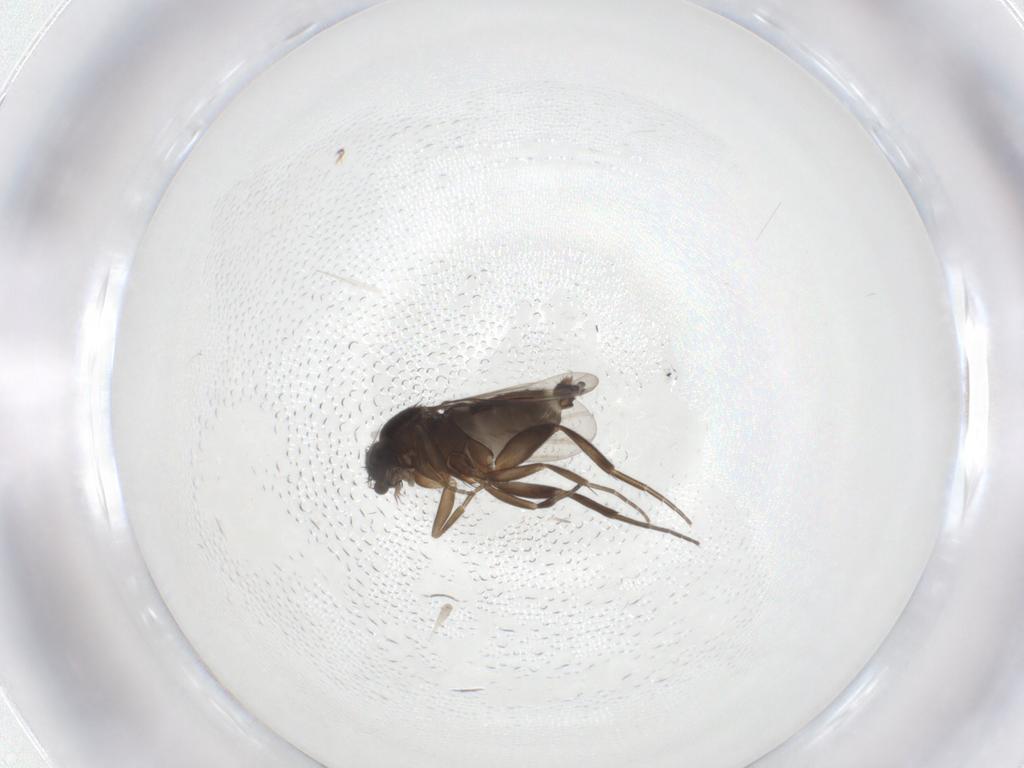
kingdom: Animalia
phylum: Arthropoda
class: Insecta
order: Diptera
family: Phoridae
